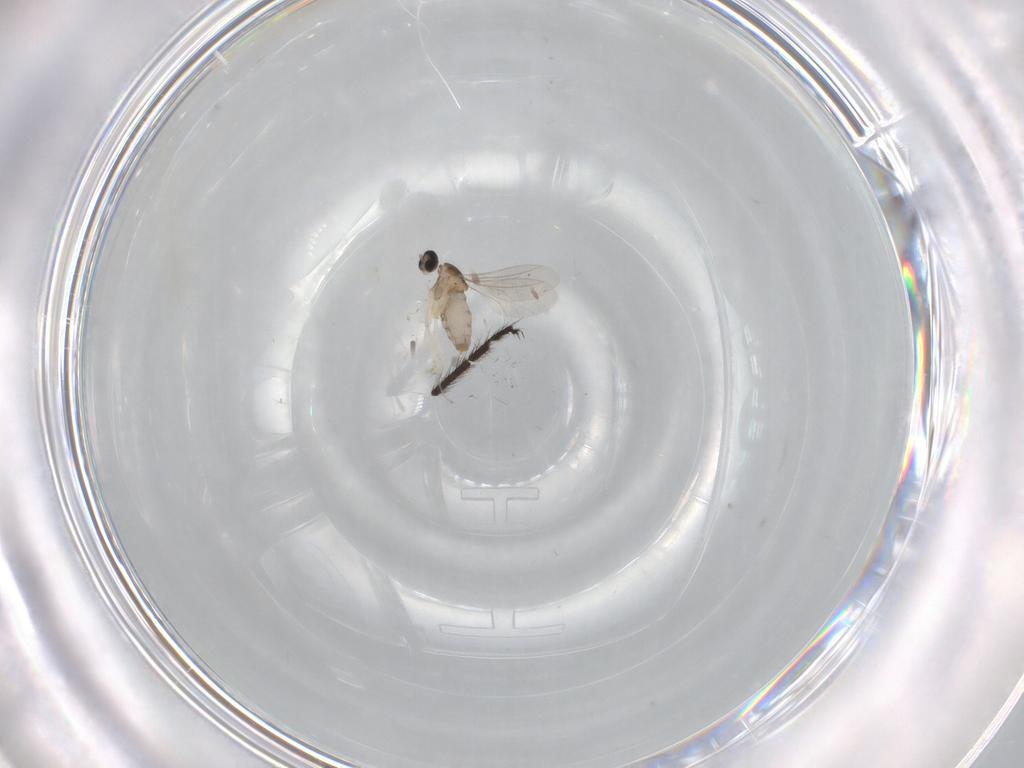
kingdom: Animalia
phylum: Arthropoda
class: Insecta
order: Diptera
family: Cecidomyiidae
